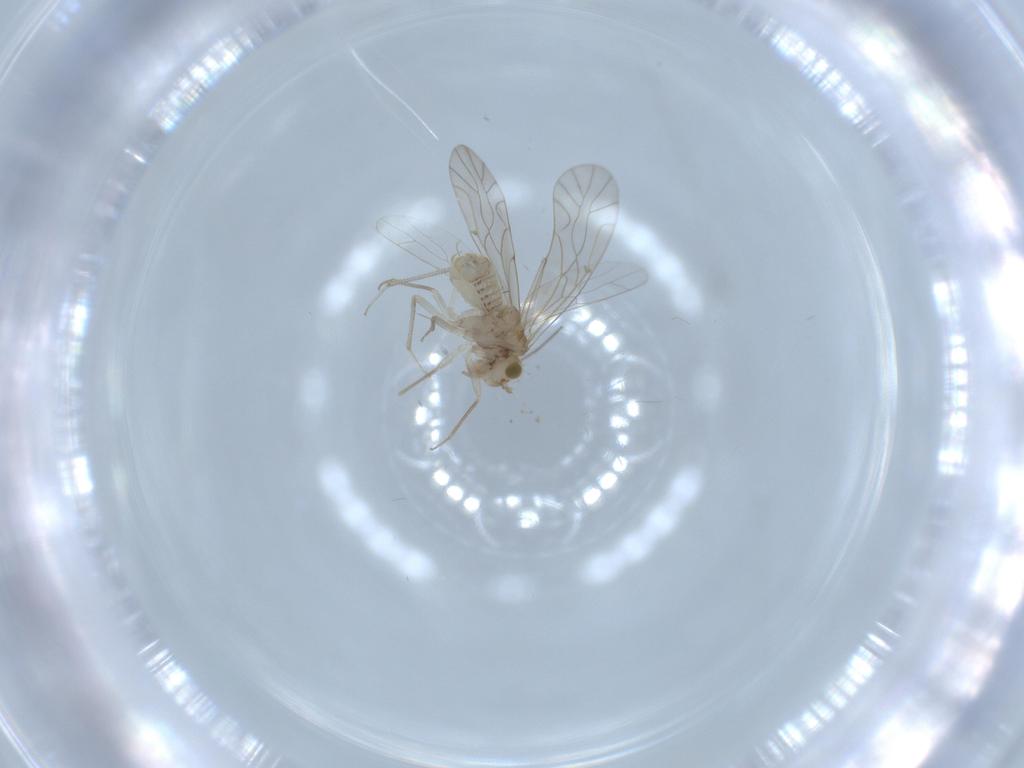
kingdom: Animalia
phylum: Arthropoda
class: Insecta
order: Psocodea
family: Lachesillidae
